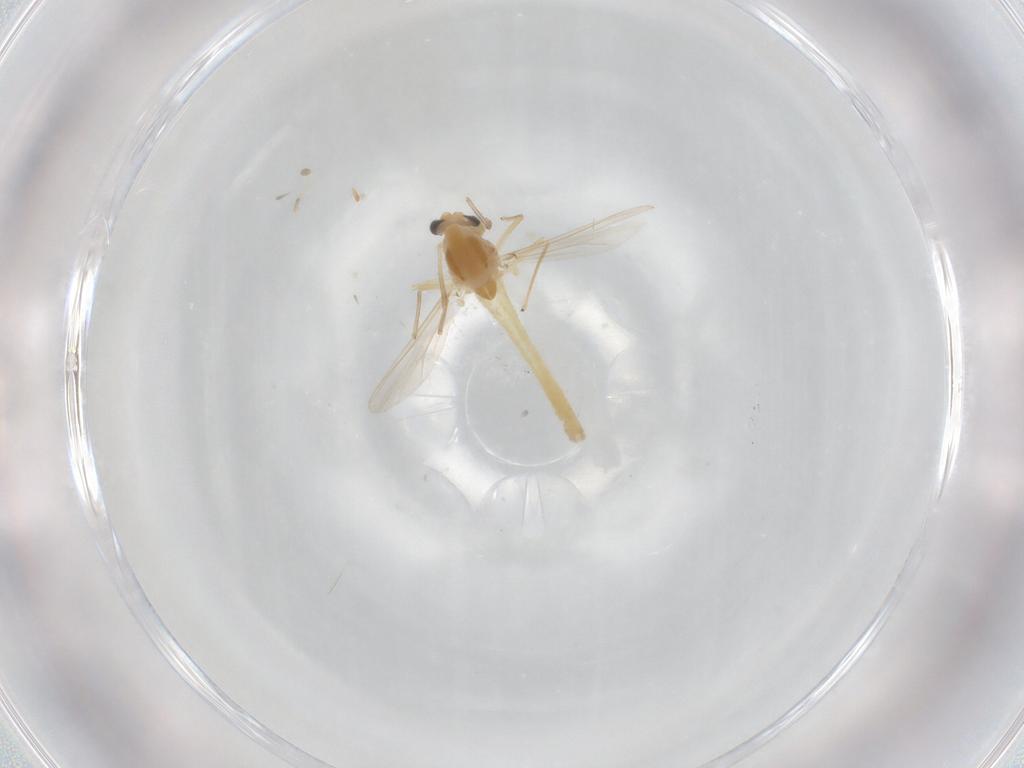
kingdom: Animalia
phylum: Arthropoda
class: Insecta
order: Diptera
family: Chironomidae
